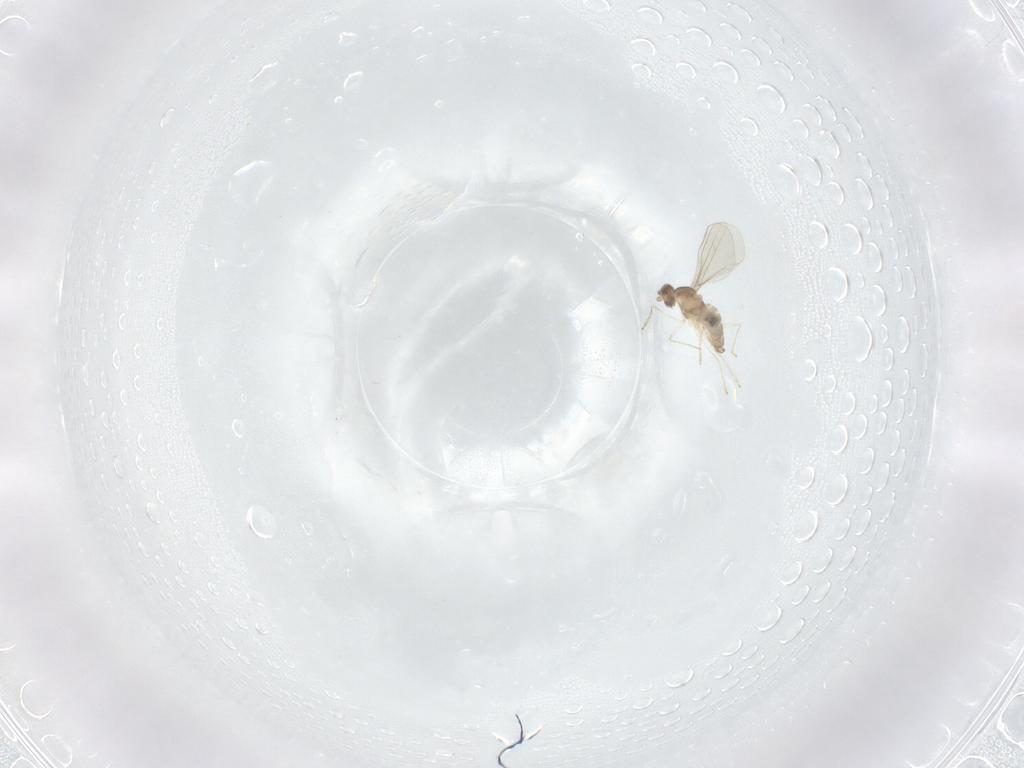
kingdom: Animalia
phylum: Arthropoda
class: Insecta
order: Diptera
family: Cecidomyiidae
